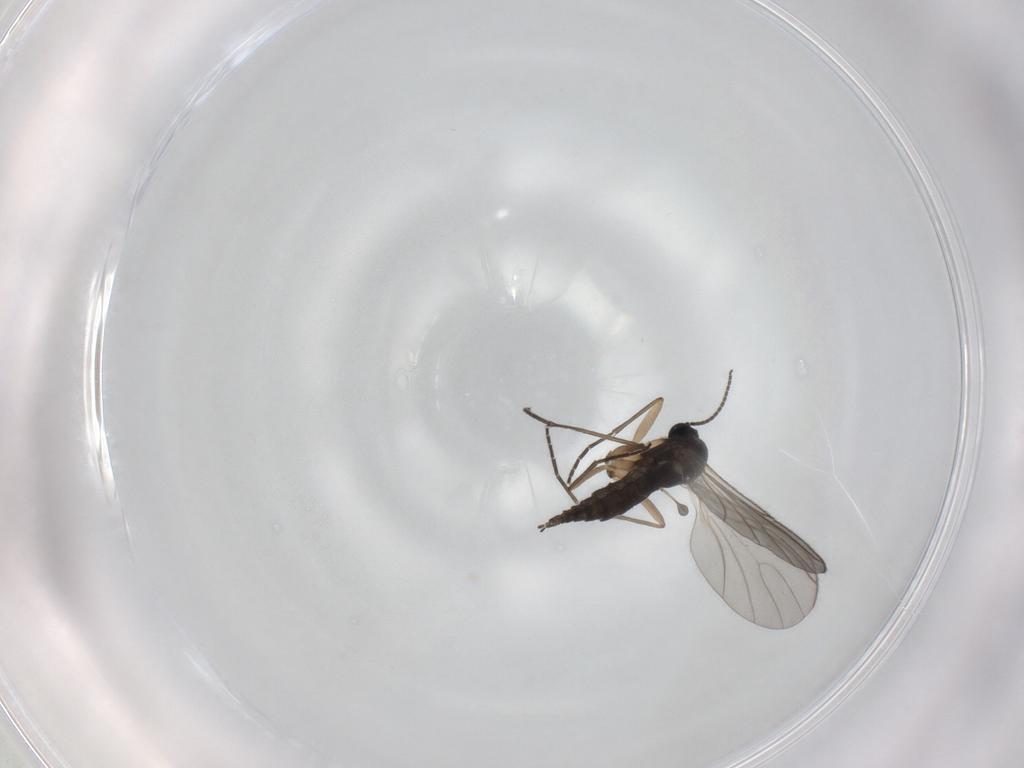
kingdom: Animalia
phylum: Arthropoda
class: Insecta
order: Diptera
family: Sciaridae
